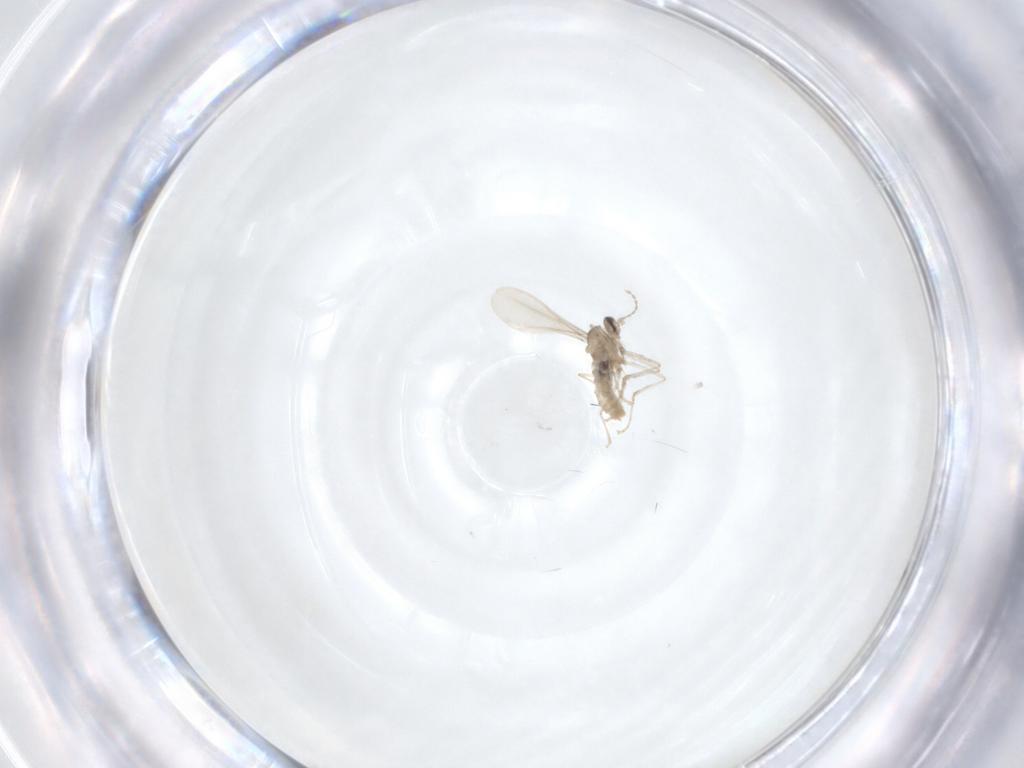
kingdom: Animalia
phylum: Arthropoda
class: Insecta
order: Diptera
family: Cecidomyiidae
